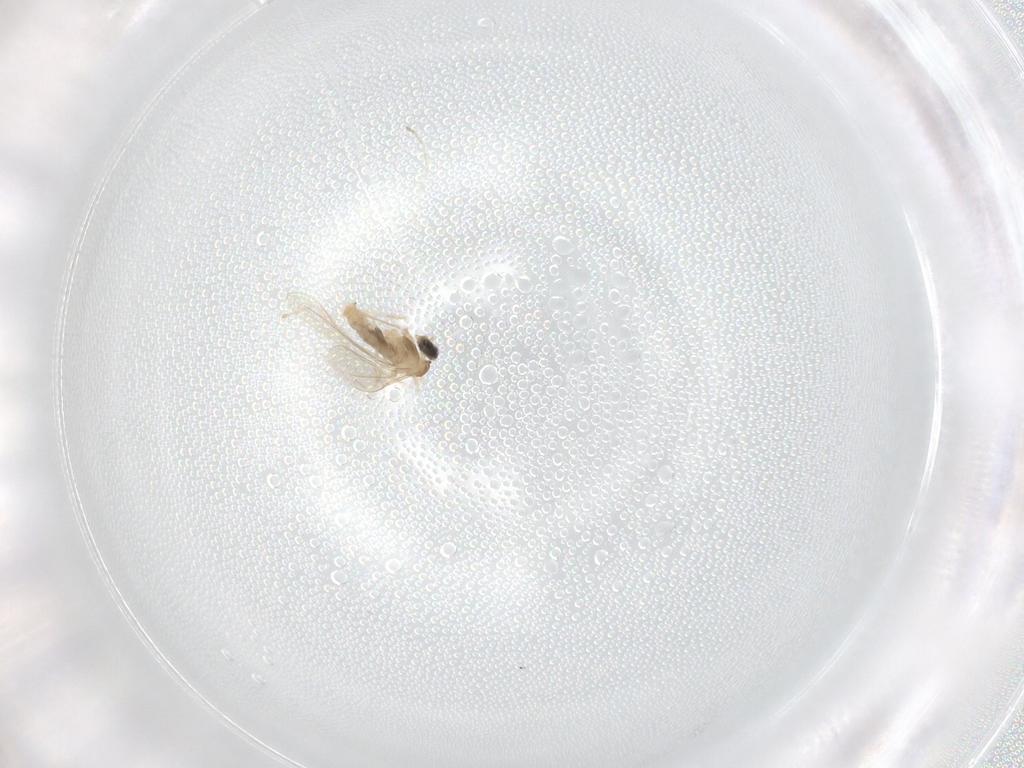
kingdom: Animalia
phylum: Arthropoda
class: Insecta
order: Diptera
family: Cecidomyiidae
